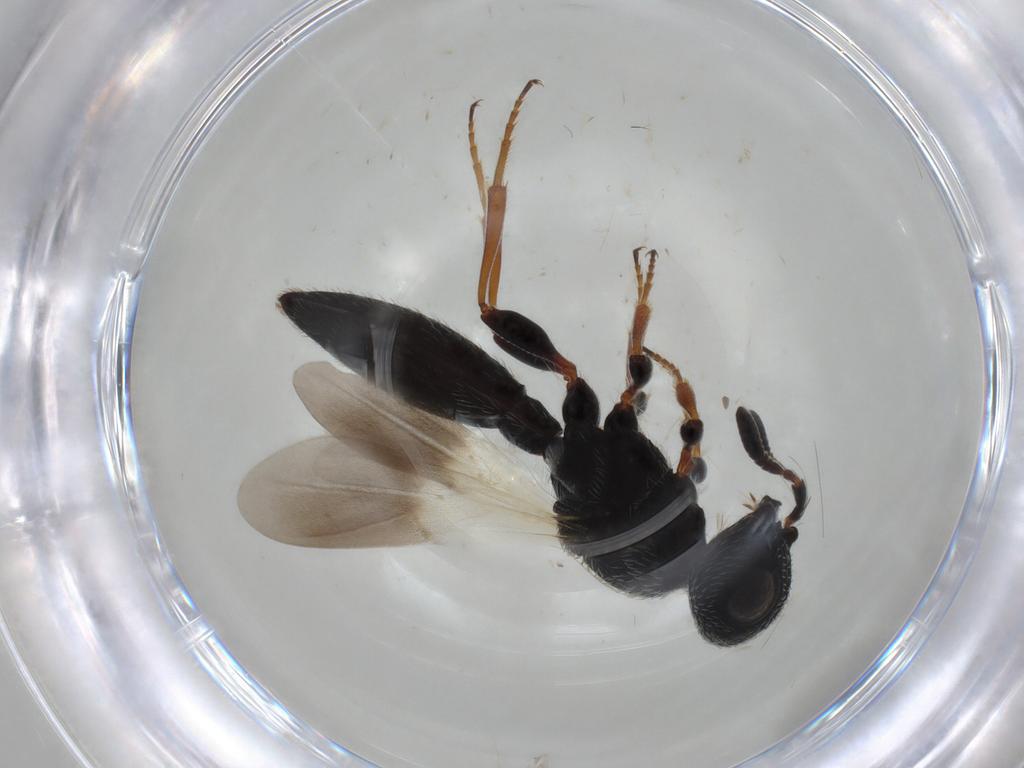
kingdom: Animalia
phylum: Arthropoda
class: Insecta
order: Hymenoptera
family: Scelionidae
